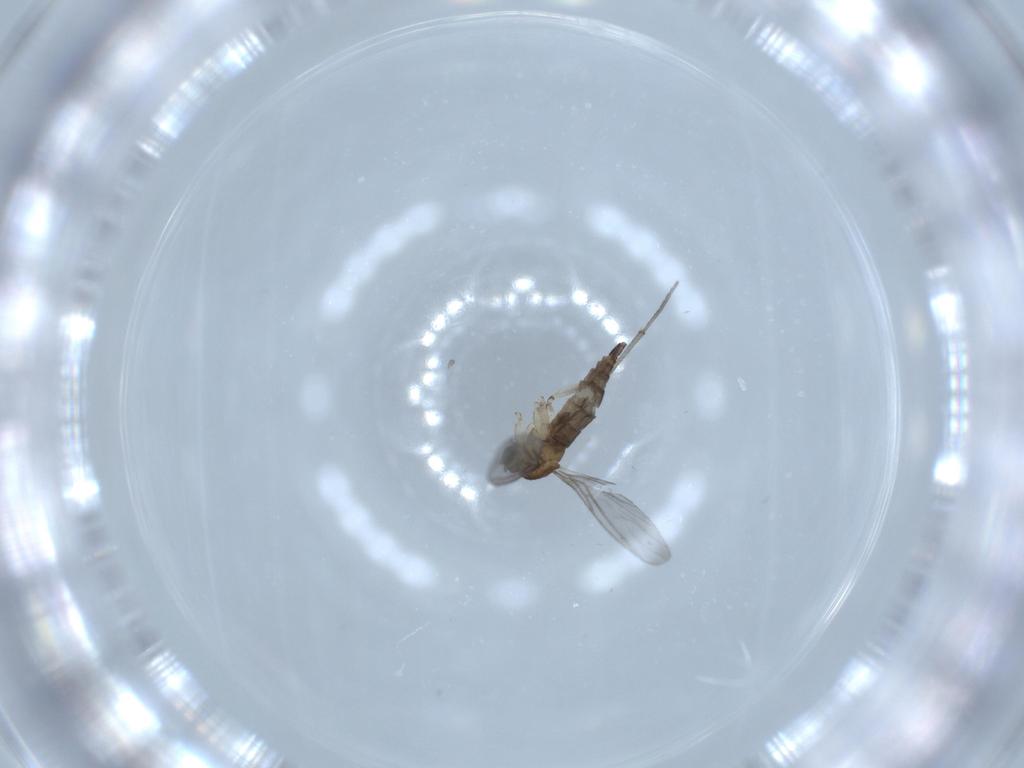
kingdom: Animalia
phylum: Arthropoda
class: Insecta
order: Diptera
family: Sciaridae
